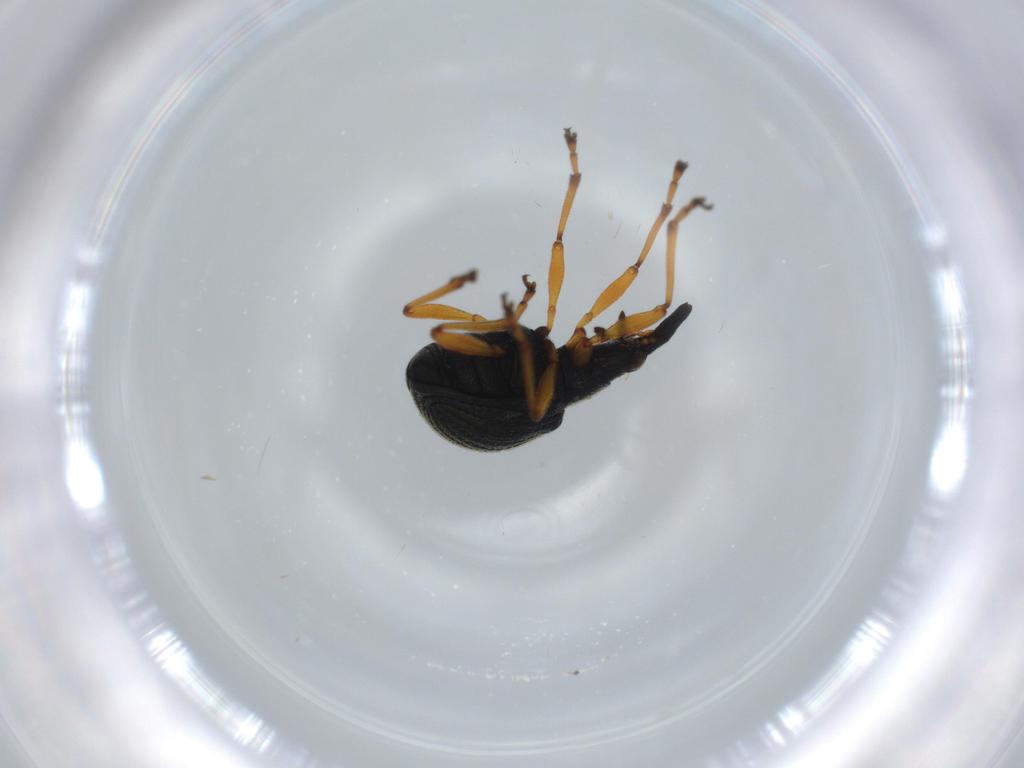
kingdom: Animalia
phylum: Arthropoda
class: Insecta
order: Coleoptera
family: Brentidae
